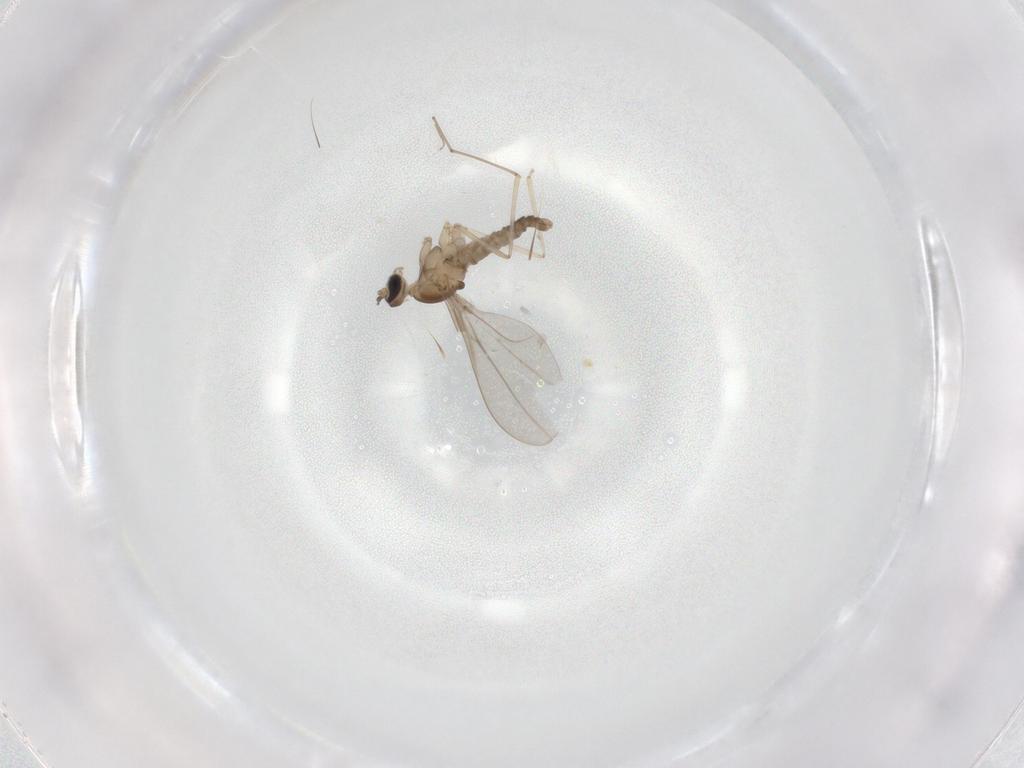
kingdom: Animalia
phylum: Arthropoda
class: Insecta
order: Diptera
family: Cecidomyiidae
